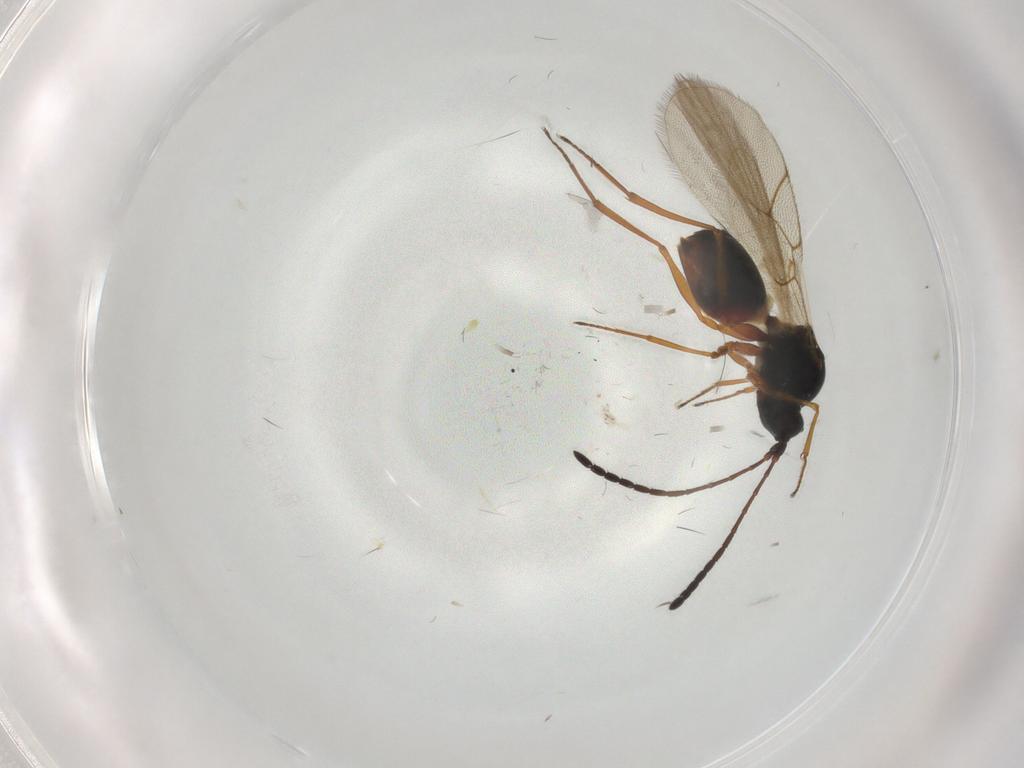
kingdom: Animalia
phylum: Arthropoda
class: Insecta
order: Hymenoptera
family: Figitidae
